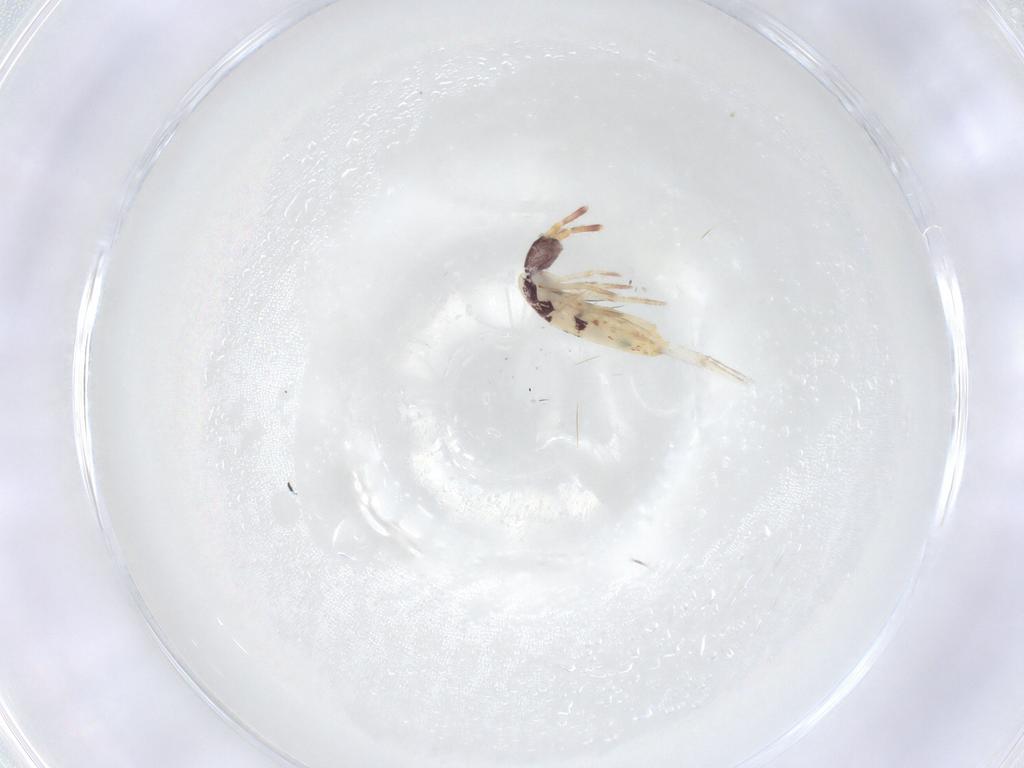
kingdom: Animalia
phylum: Arthropoda
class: Collembola
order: Entomobryomorpha
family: Entomobryidae
